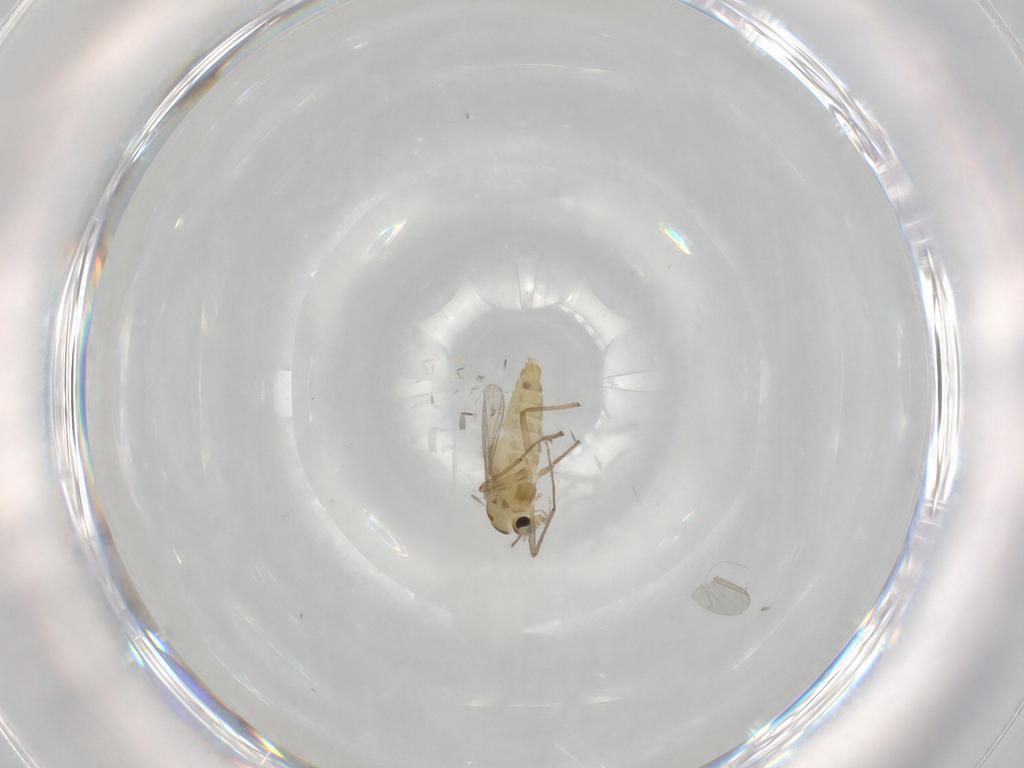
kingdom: Animalia
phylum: Arthropoda
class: Insecta
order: Diptera
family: Chironomidae
